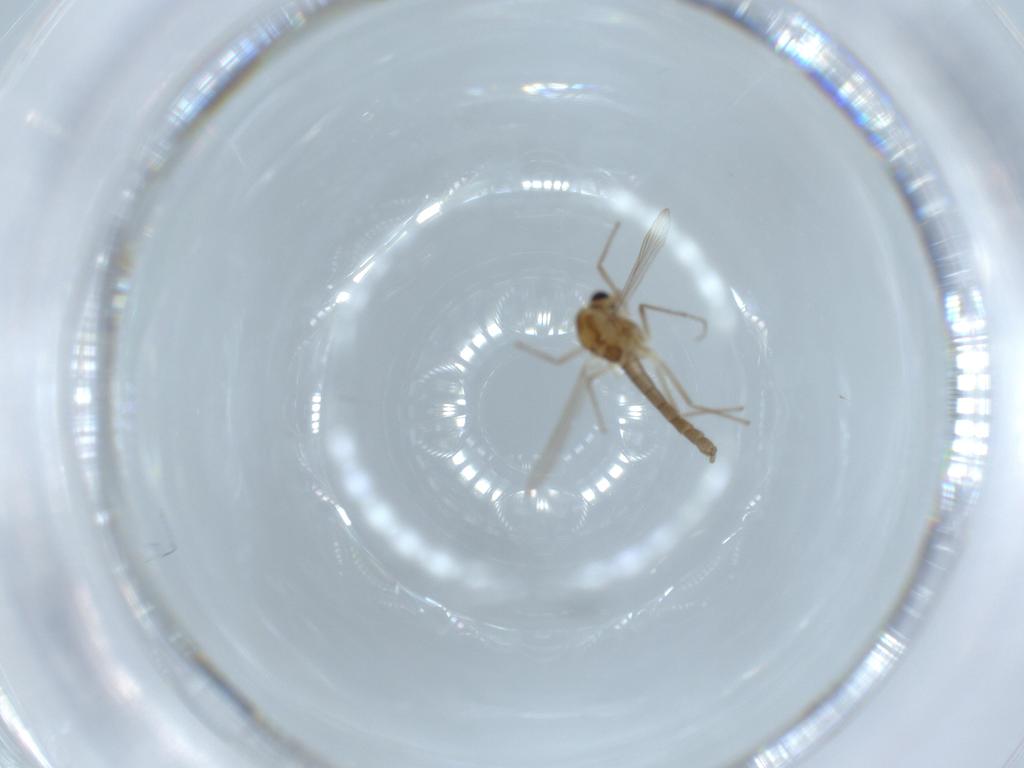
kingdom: Animalia
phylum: Arthropoda
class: Insecta
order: Diptera
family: Chironomidae
